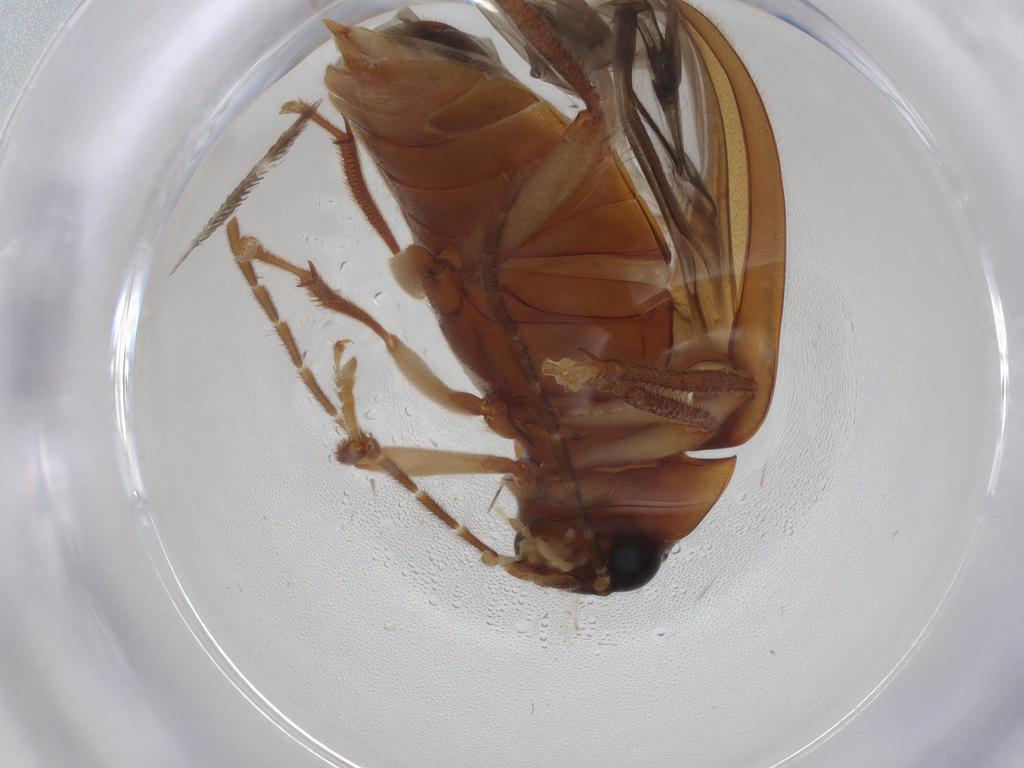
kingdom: Animalia
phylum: Arthropoda
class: Insecta
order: Coleoptera
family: Ptilodactylidae
